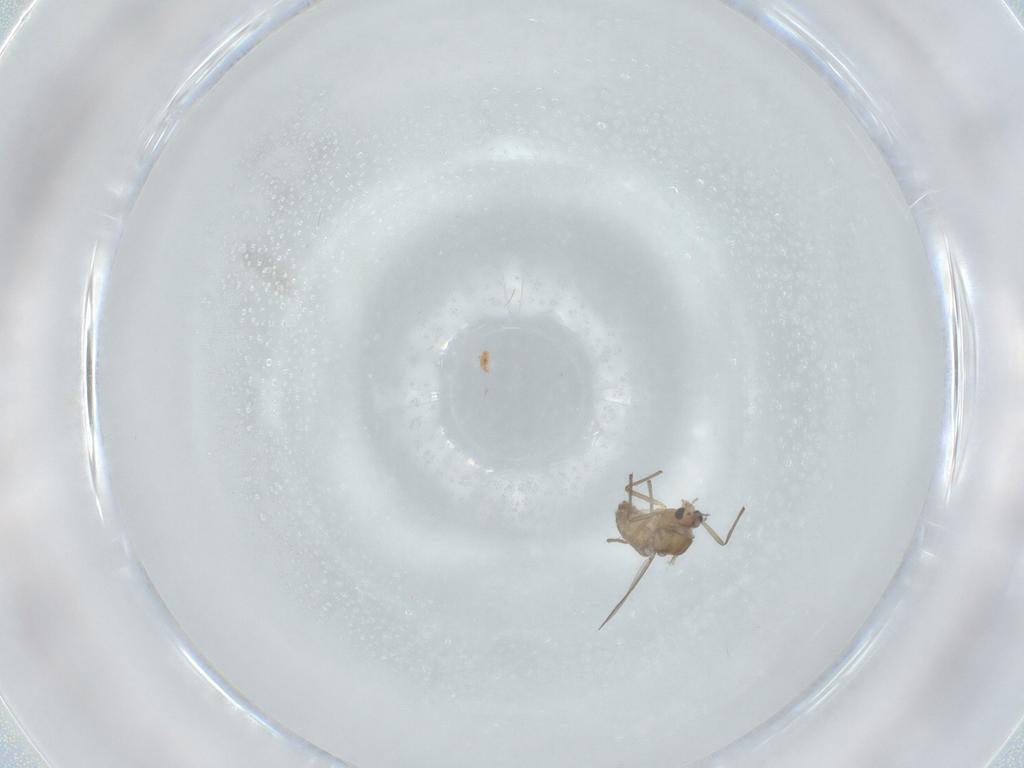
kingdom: Animalia
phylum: Arthropoda
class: Insecta
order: Diptera
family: Chironomidae
